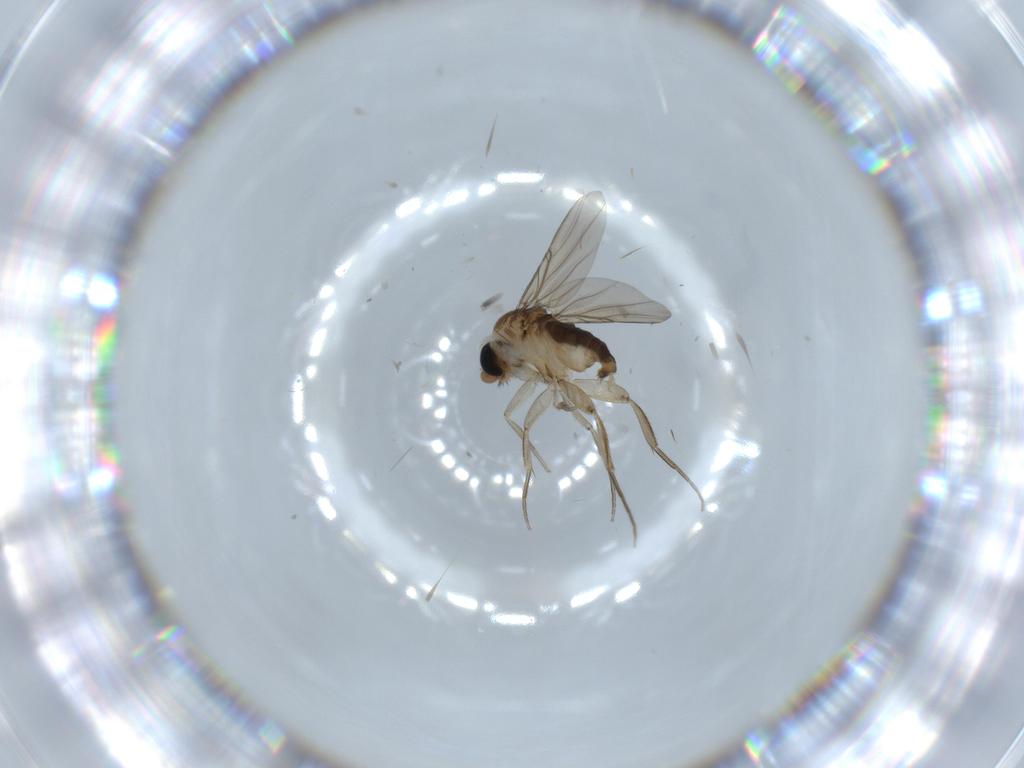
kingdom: Animalia
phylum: Arthropoda
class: Insecta
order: Diptera
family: Phoridae
